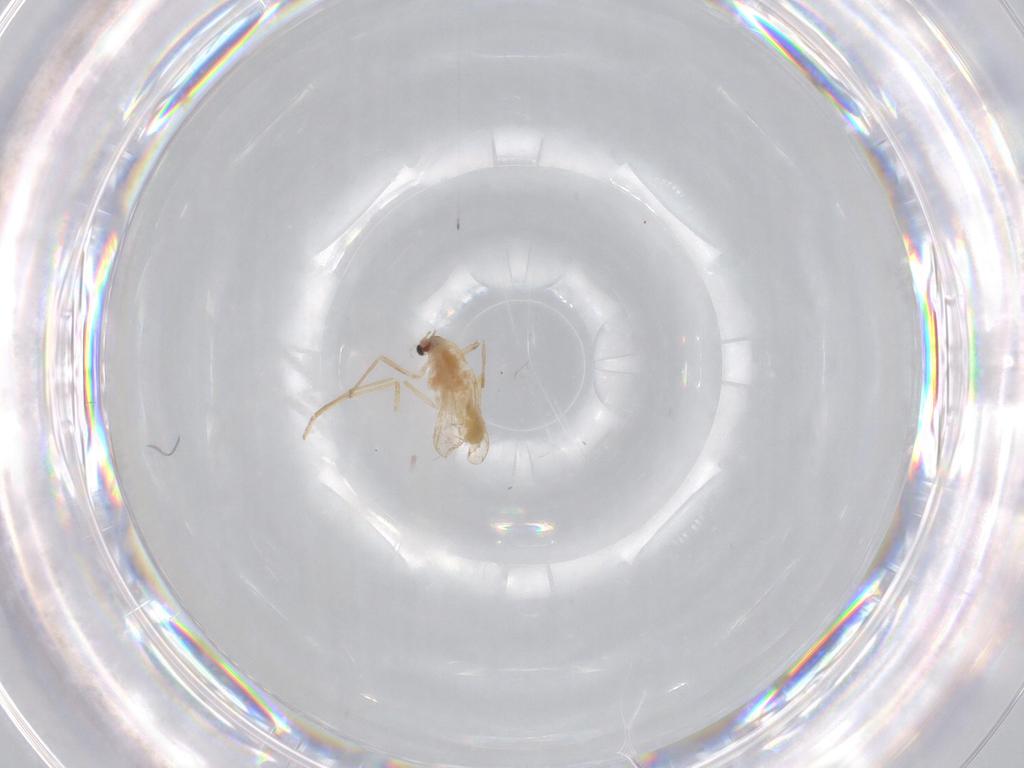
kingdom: Animalia
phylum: Arthropoda
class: Insecta
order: Diptera
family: Chironomidae
